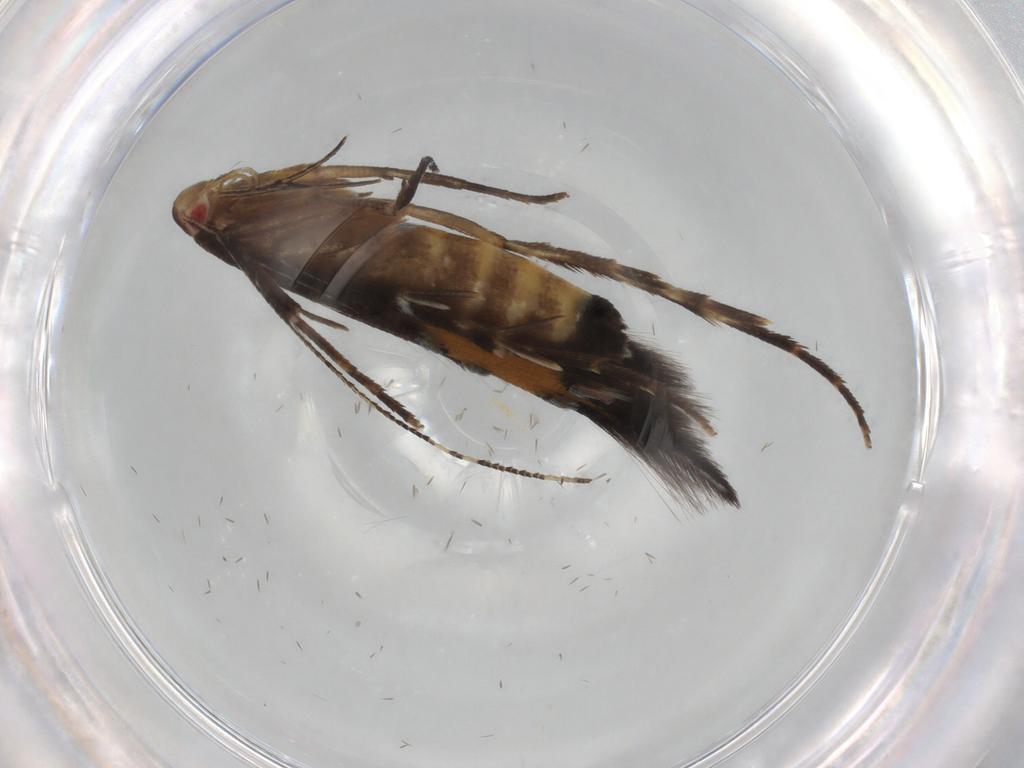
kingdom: Animalia
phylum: Arthropoda
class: Insecta
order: Lepidoptera
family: Cosmopterigidae
